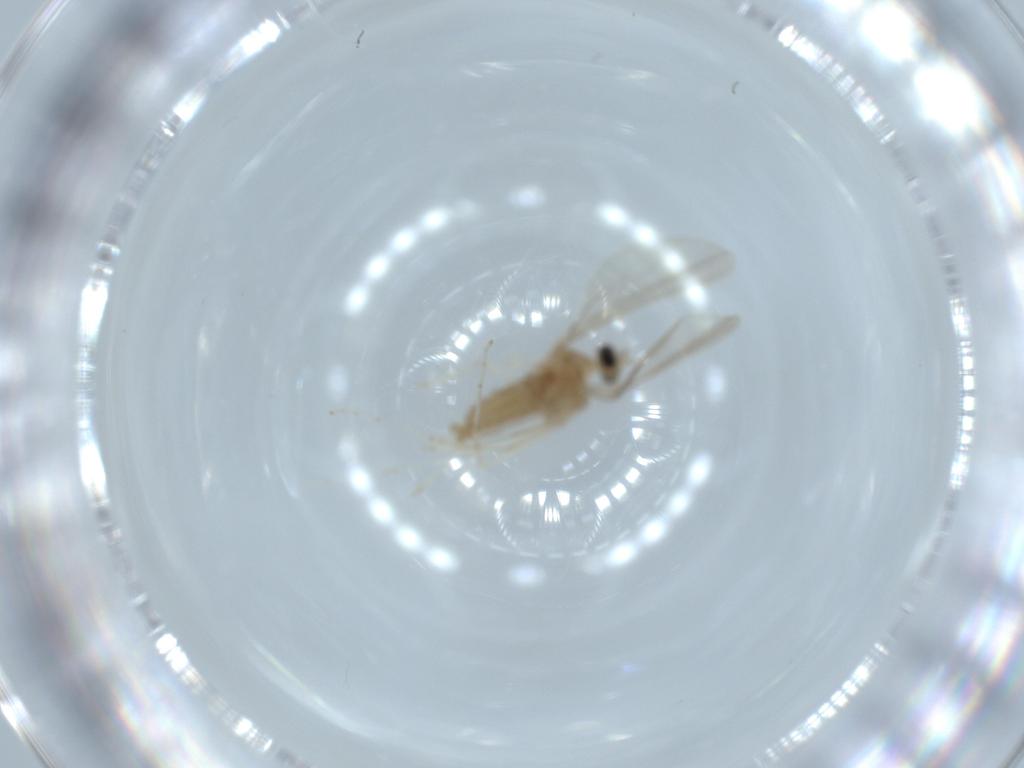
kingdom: Animalia
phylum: Arthropoda
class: Insecta
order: Diptera
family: Cecidomyiidae
